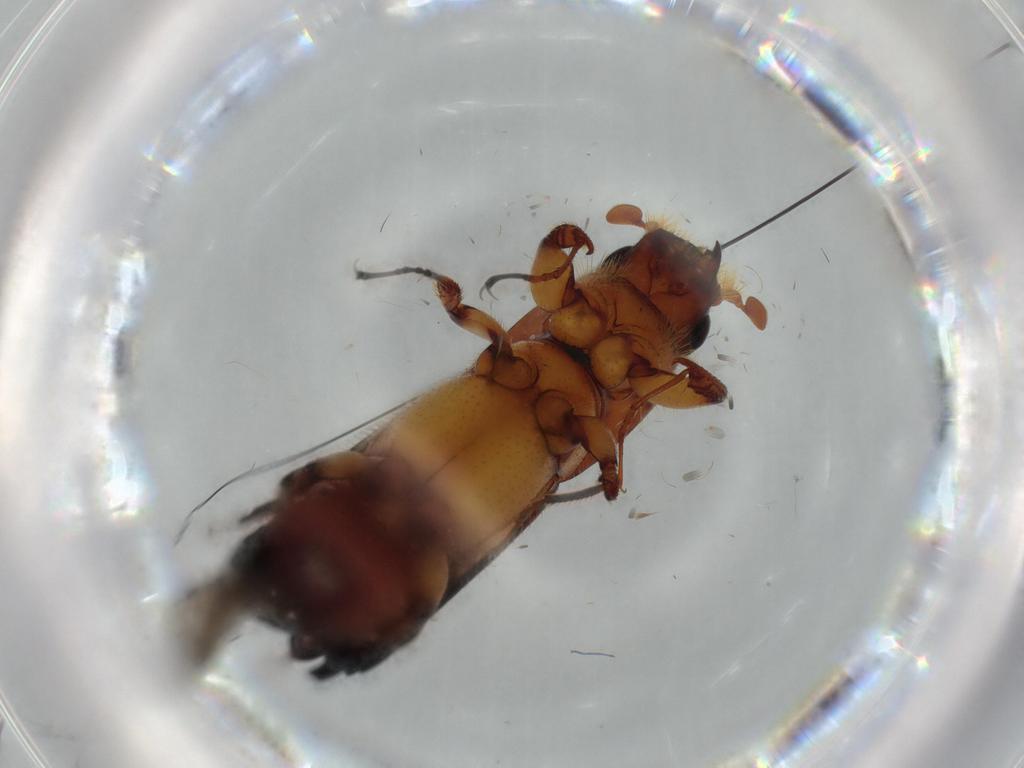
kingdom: Animalia
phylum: Arthropoda
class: Insecta
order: Coleoptera
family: Curculionidae
